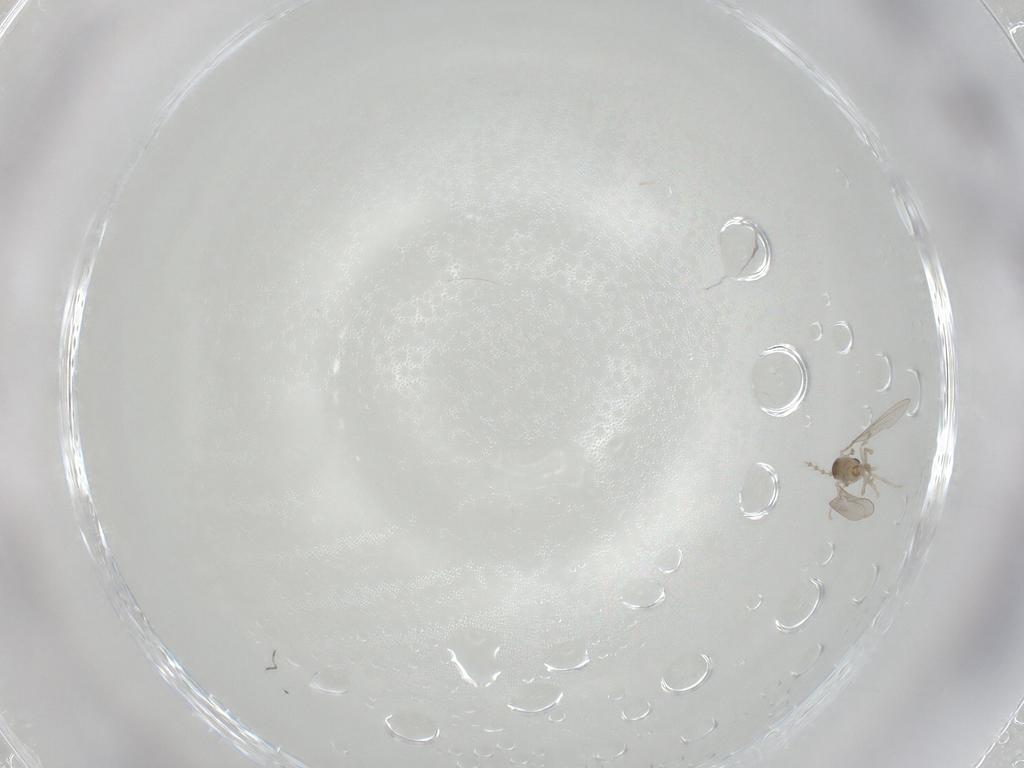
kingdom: Animalia
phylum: Arthropoda
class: Insecta
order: Diptera
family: Cecidomyiidae
